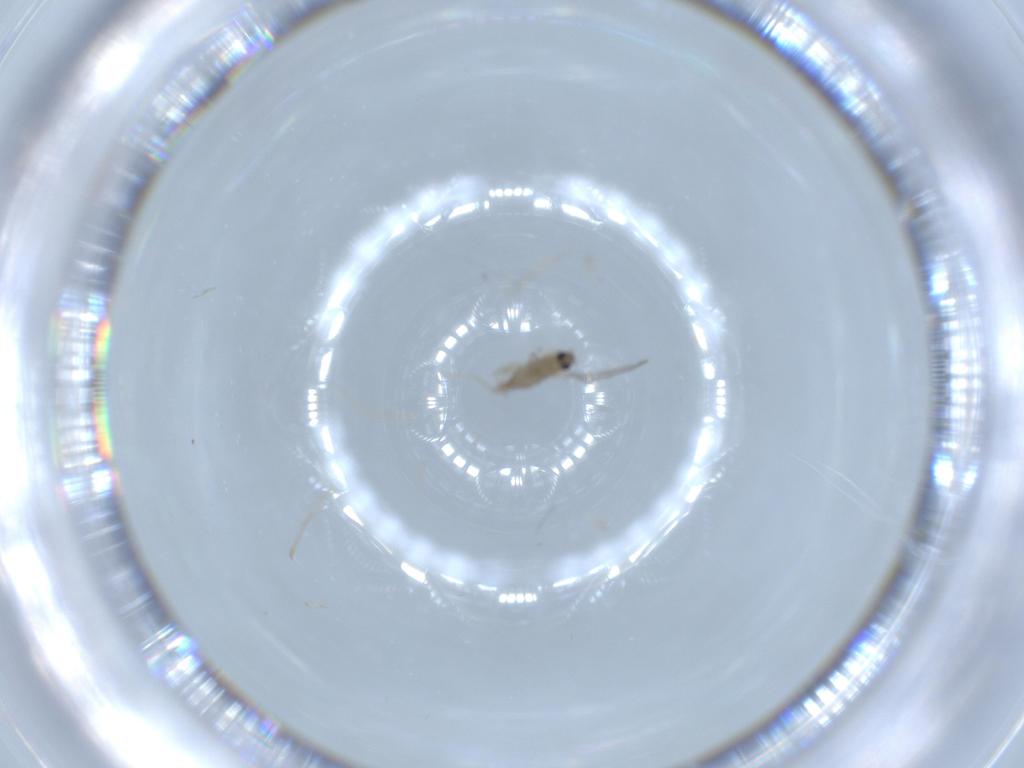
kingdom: Animalia
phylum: Arthropoda
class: Insecta
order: Diptera
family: Cecidomyiidae
